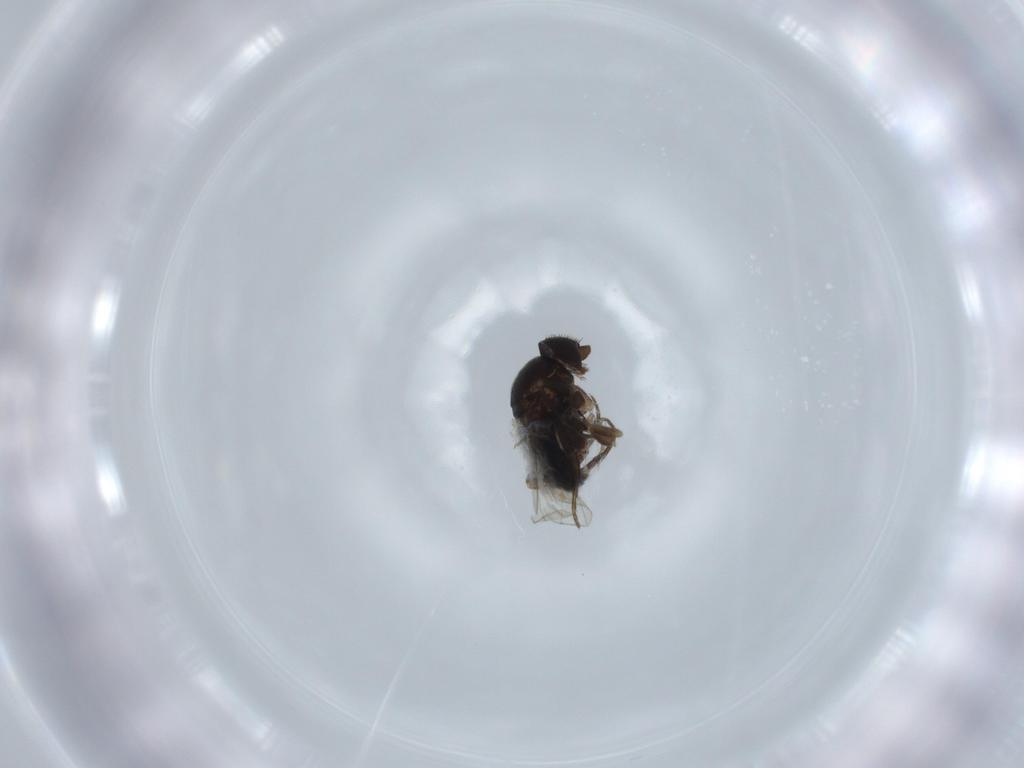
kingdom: Animalia
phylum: Arthropoda
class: Insecta
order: Diptera
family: Phoridae
